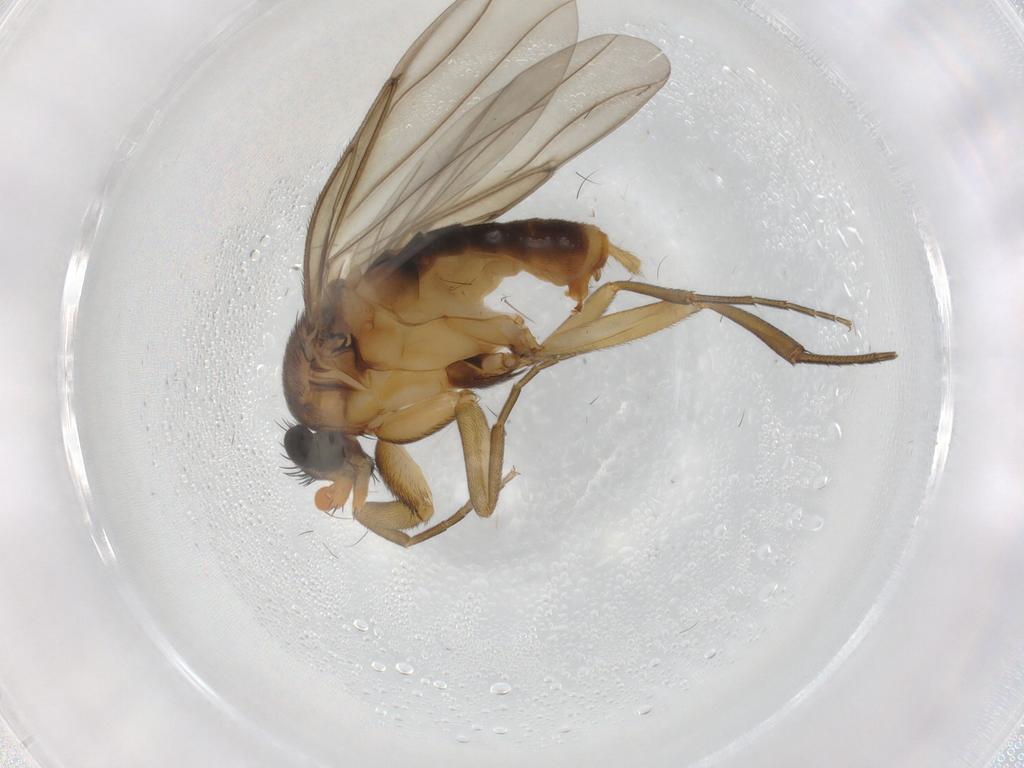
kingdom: Animalia
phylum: Arthropoda
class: Insecta
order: Diptera
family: Phoridae
